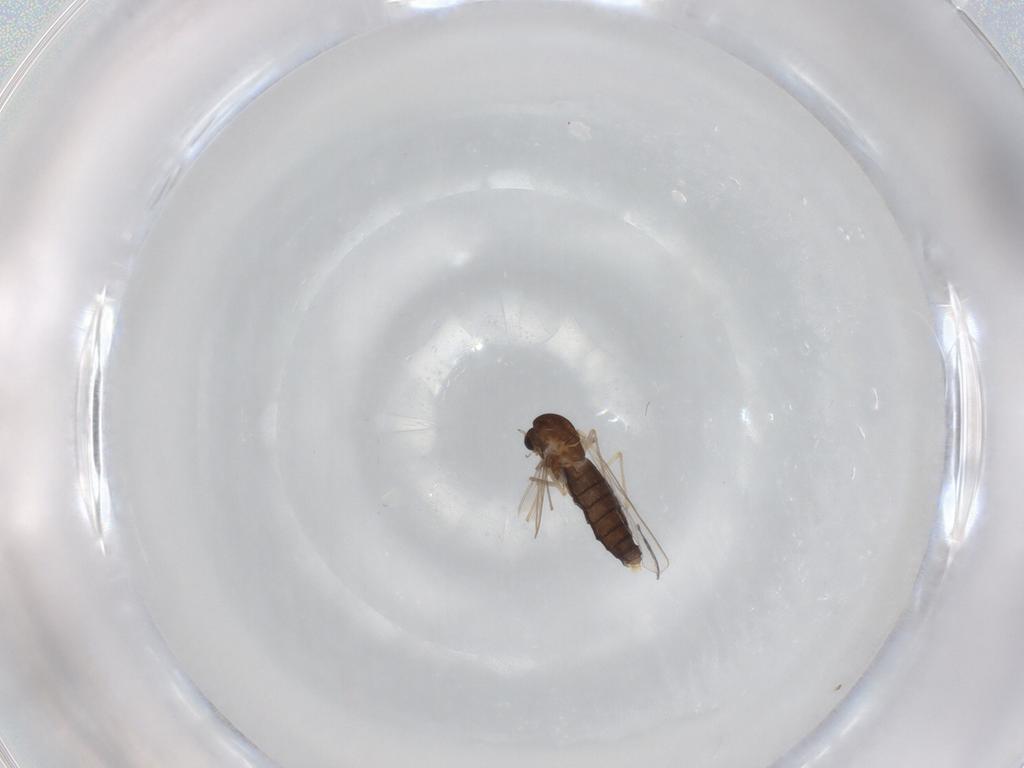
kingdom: Animalia
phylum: Arthropoda
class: Insecta
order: Diptera
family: Chironomidae
